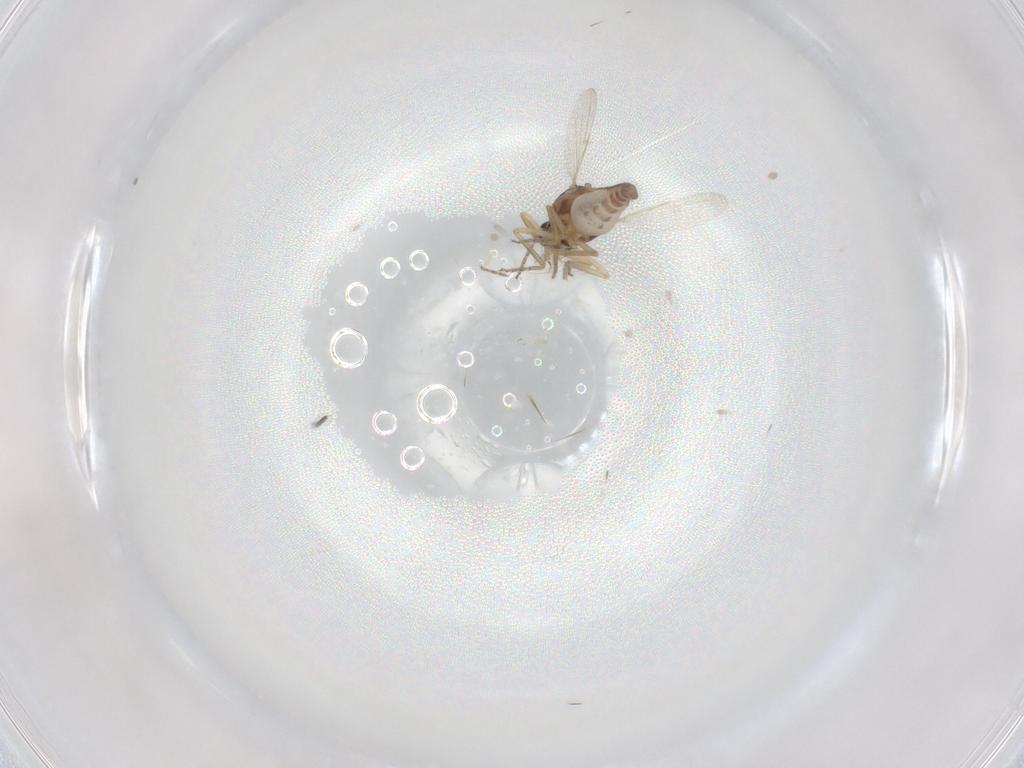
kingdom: Animalia
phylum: Arthropoda
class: Insecta
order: Diptera
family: Ceratopogonidae
